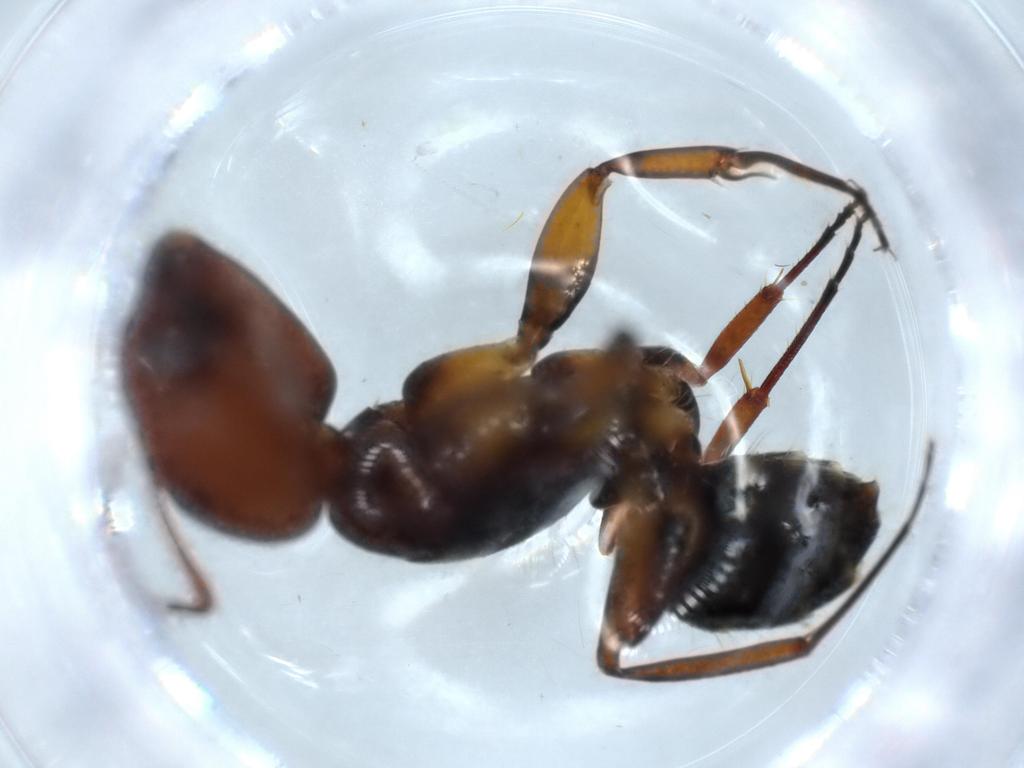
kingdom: Animalia
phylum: Arthropoda
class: Insecta
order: Hymenoptera
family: Formicidae
